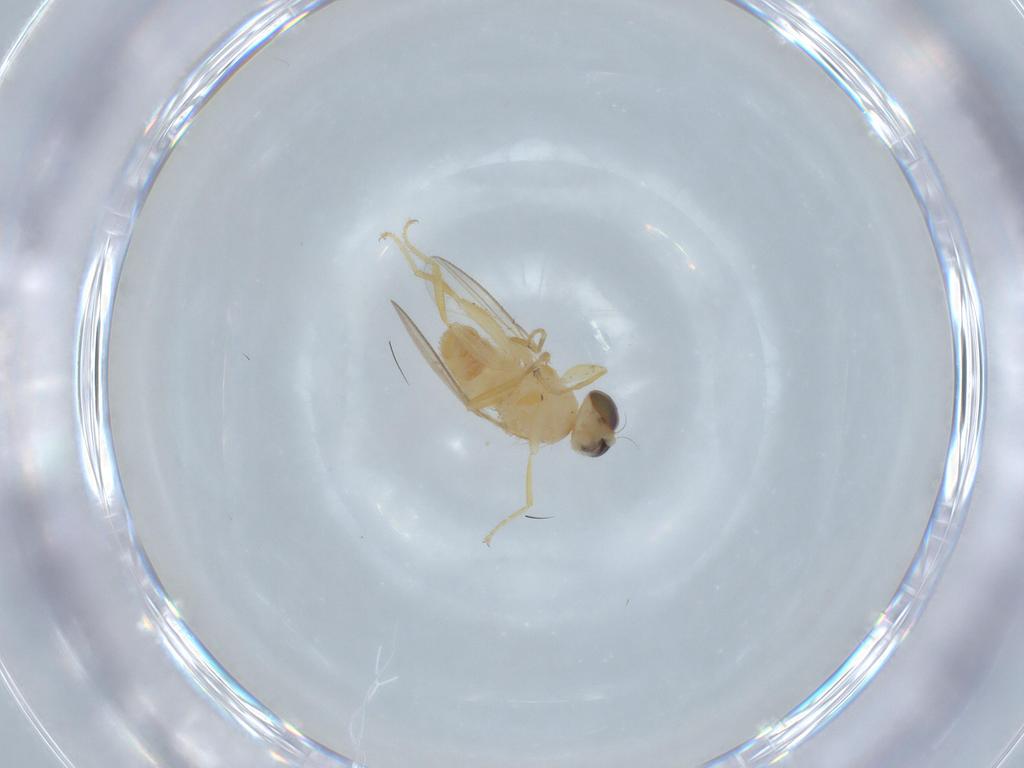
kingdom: Animalia
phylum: Arthropoda
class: Insecta
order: Diptera
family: Chyromyidae
